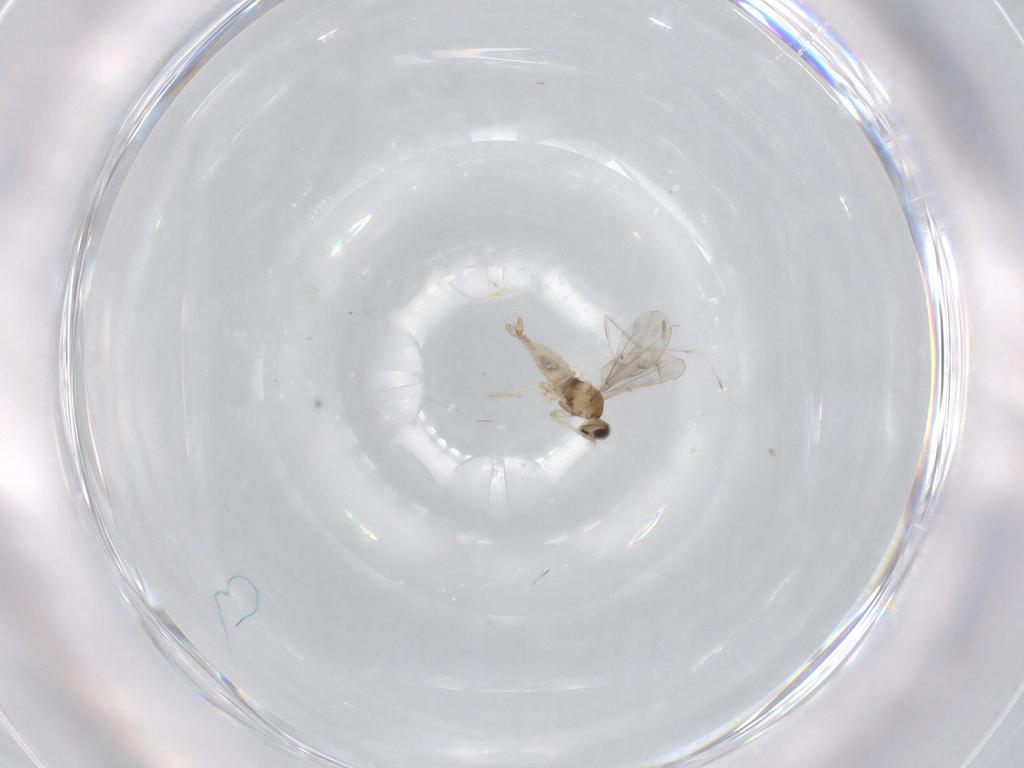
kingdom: Animalia
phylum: Arthropoda
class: Insecta
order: Diptera
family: Cecidomyiidae
